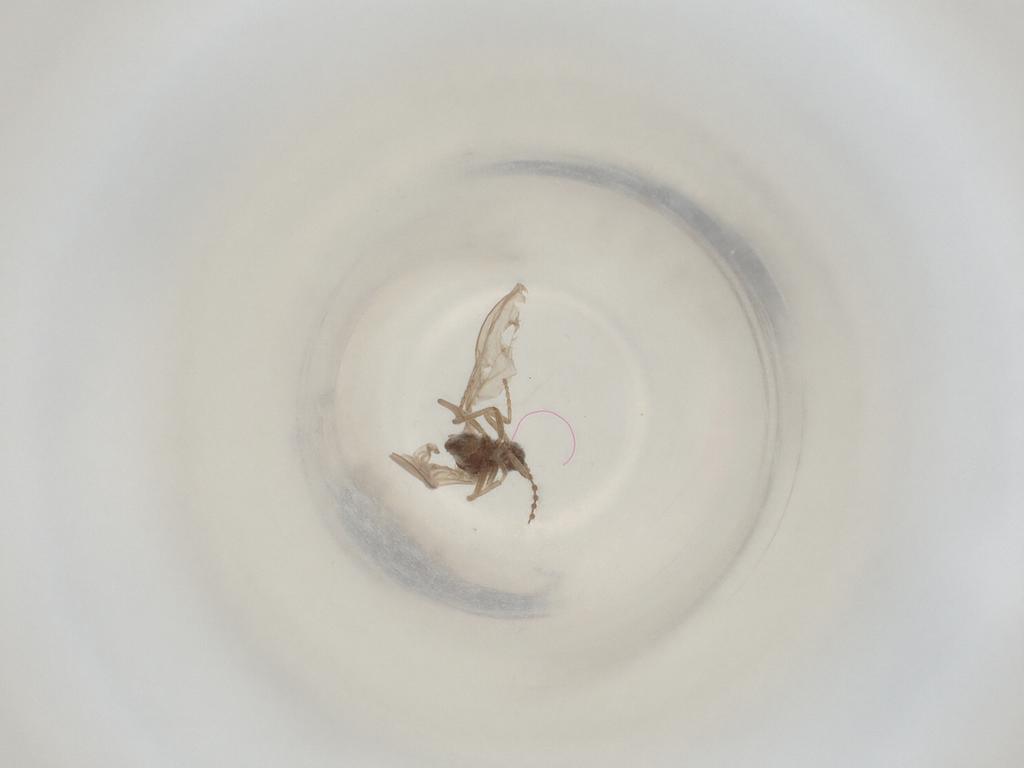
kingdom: Animalia
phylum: Arthropoda
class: Insecta
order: Diptera
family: Cecidomyiidae
